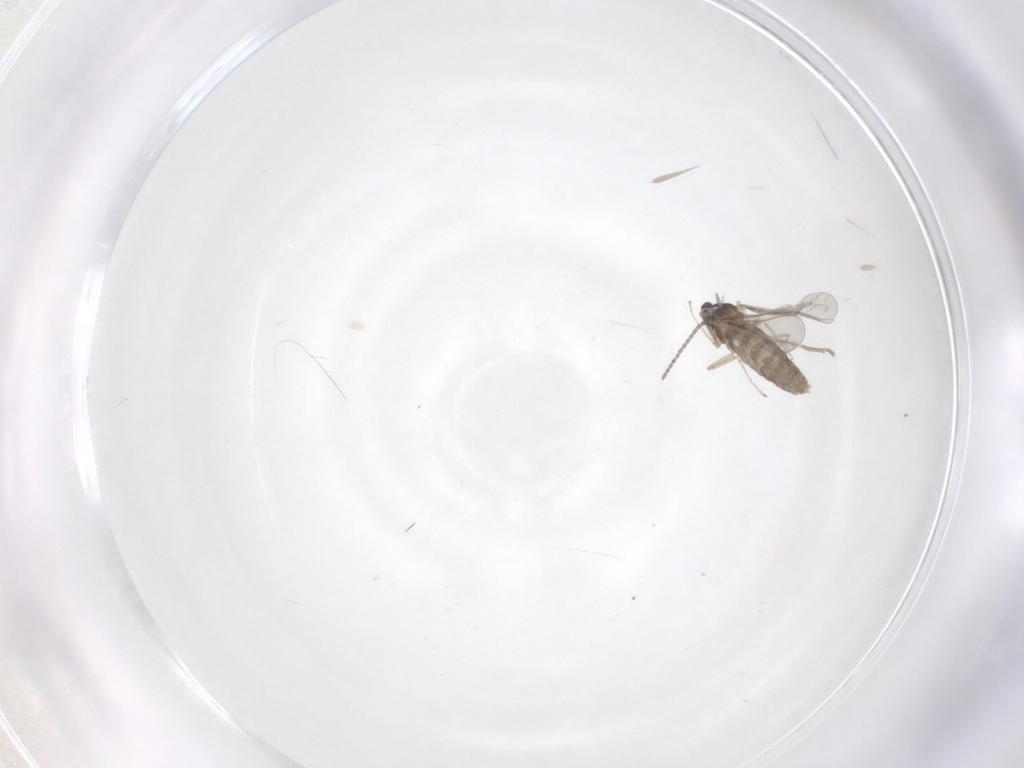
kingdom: Animalia
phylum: Arthropoda
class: Insecta
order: Diptera
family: Cecidomyiidae
